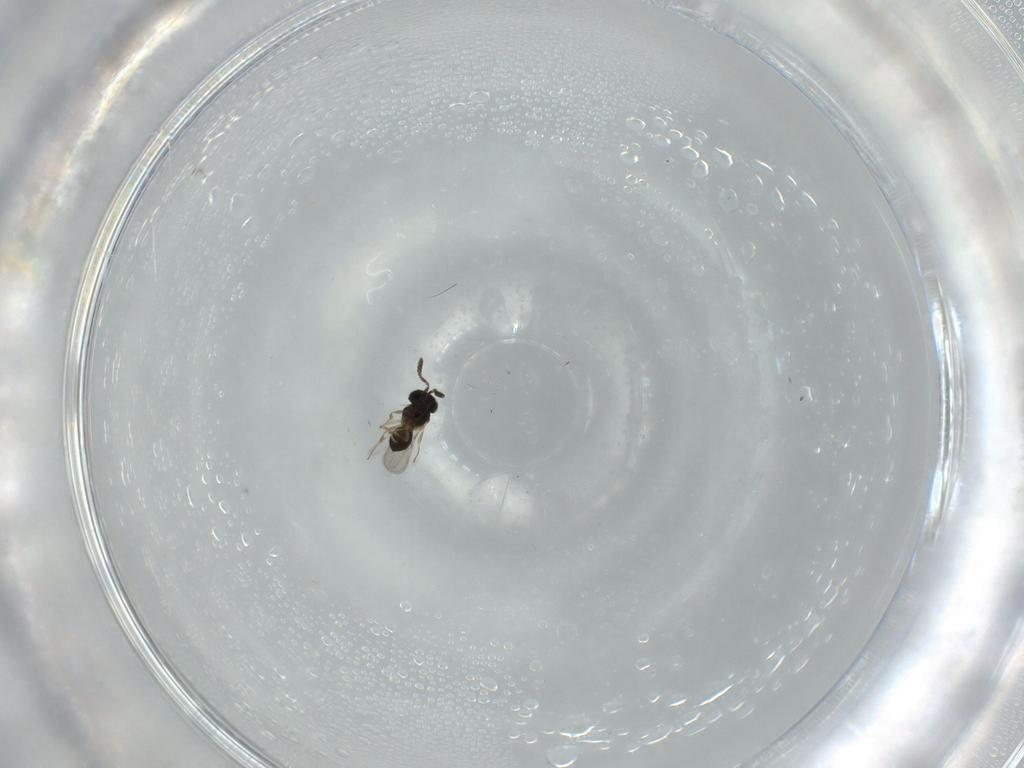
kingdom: Animalia
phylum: Arthropoda
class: Insecta
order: Hymenoptera
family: Scelionidae
